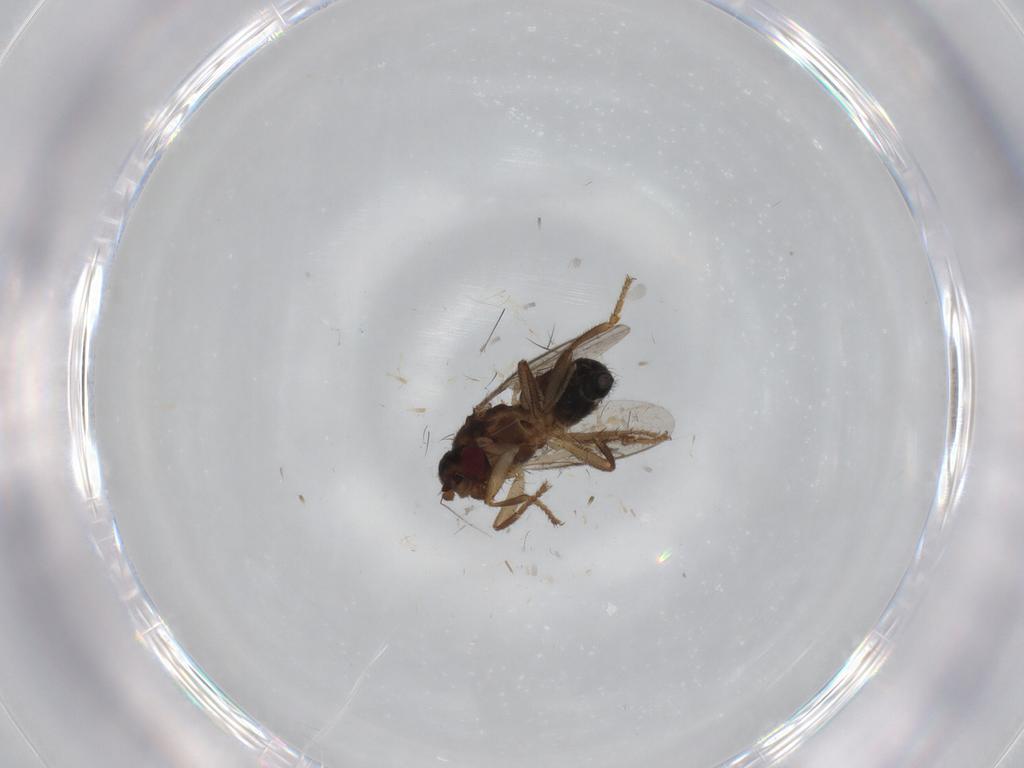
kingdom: Animalia
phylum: Arthropoda
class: Insecta
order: Diptera
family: Sphaeroceridae
